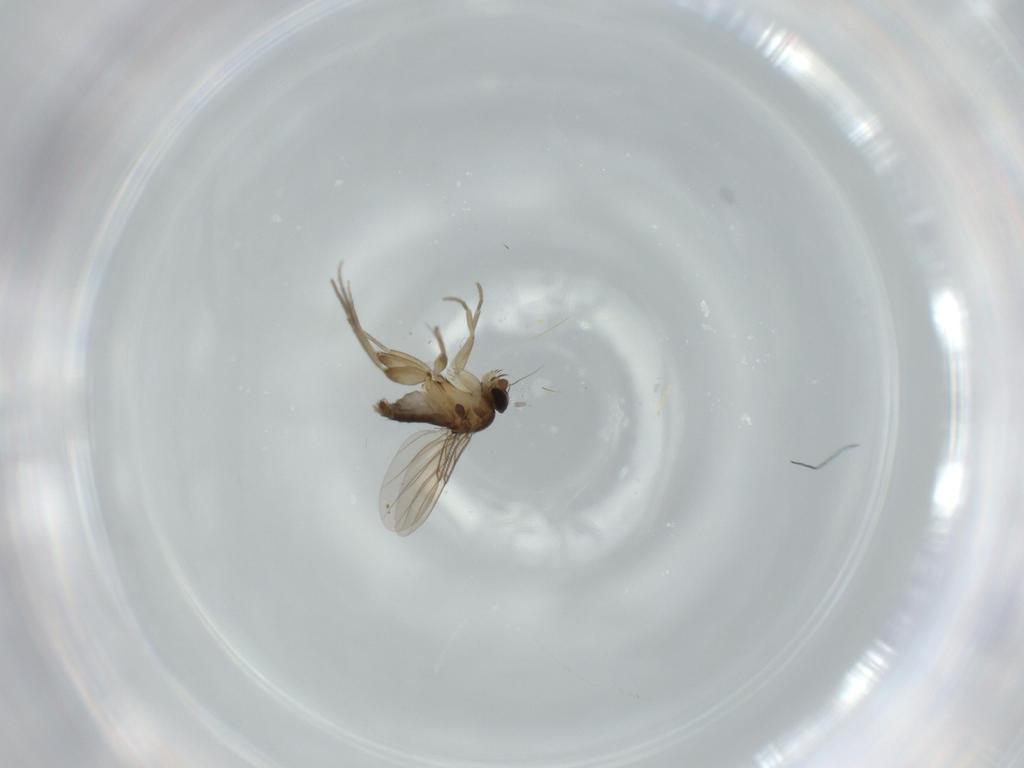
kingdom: Animalia
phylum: Arthropoda
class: Insecta
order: Diptera
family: Phoridae
